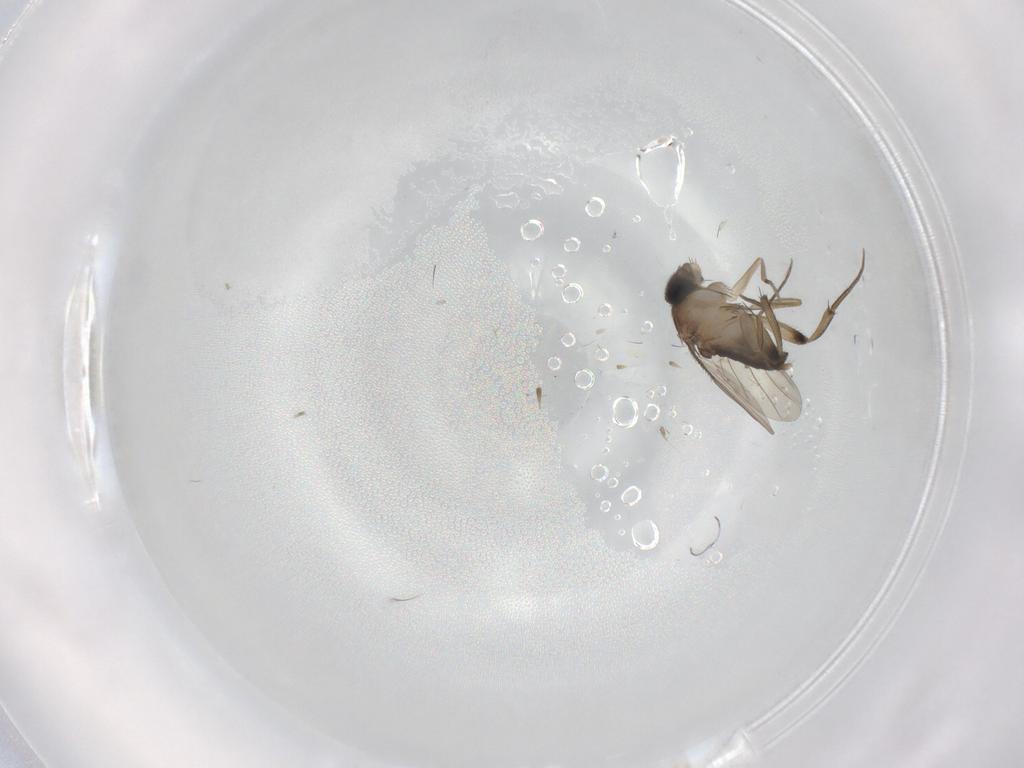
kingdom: Animalia
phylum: Arthropoda
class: Insecta
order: Diptera
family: Phoridae
